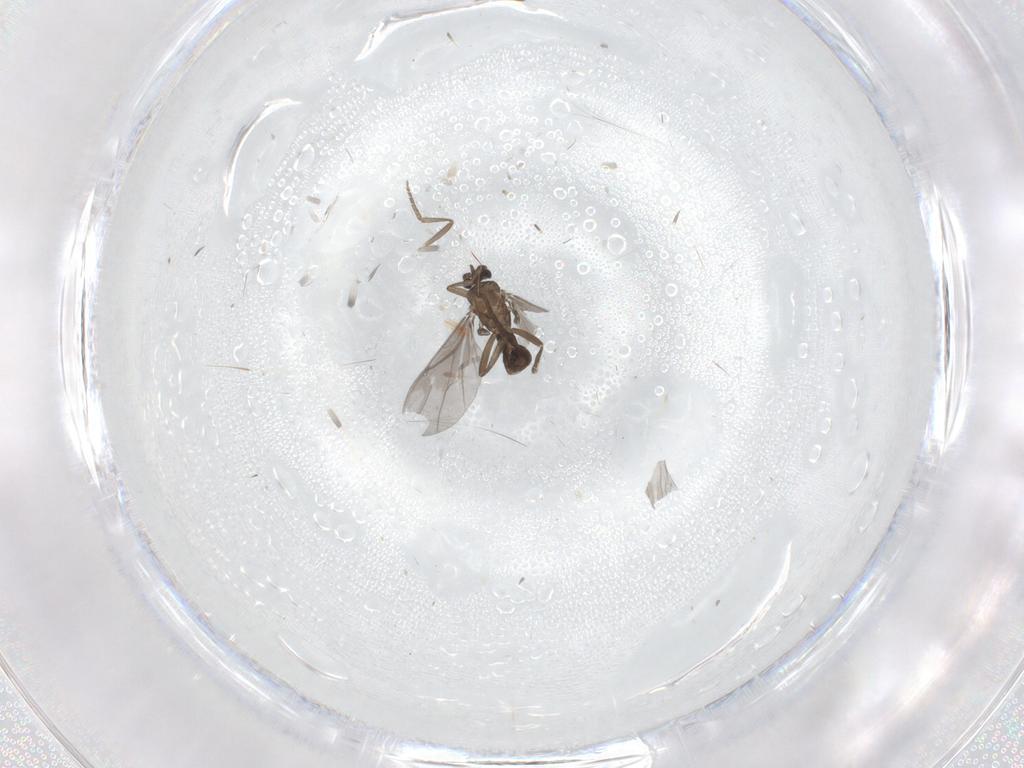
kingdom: Animalia
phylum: Arthropoda
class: Insecta
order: Diptera
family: Phoridae
